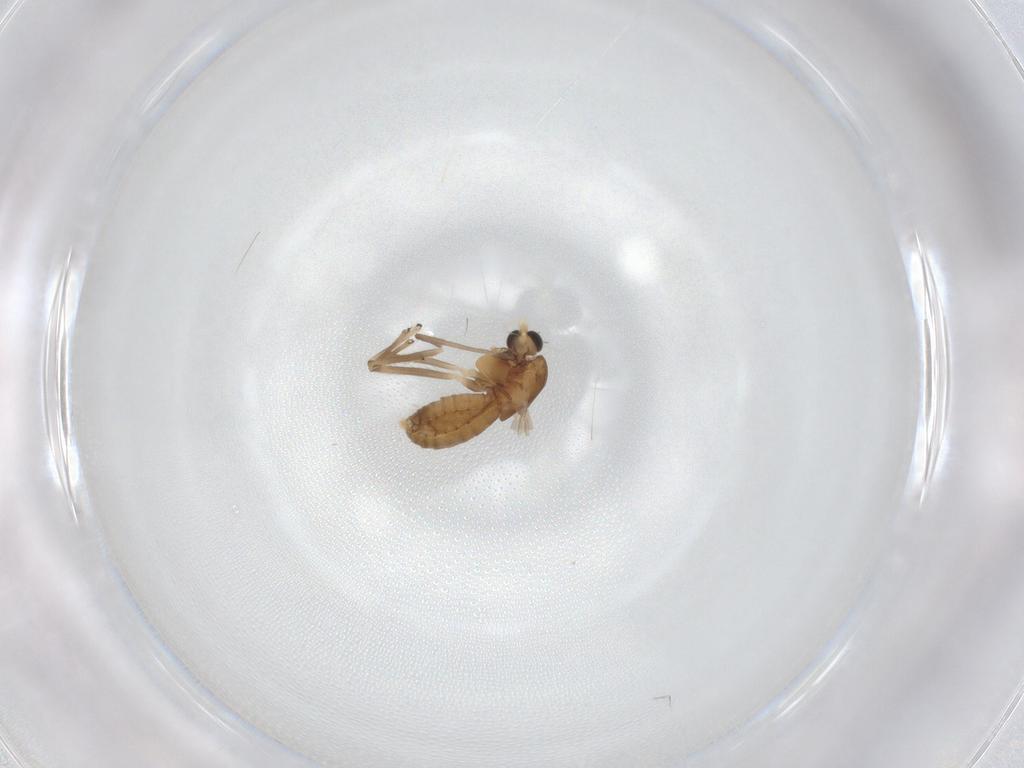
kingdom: Animalia
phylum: Arthropoda
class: Insecta
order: Diptera
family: Chironomidae
